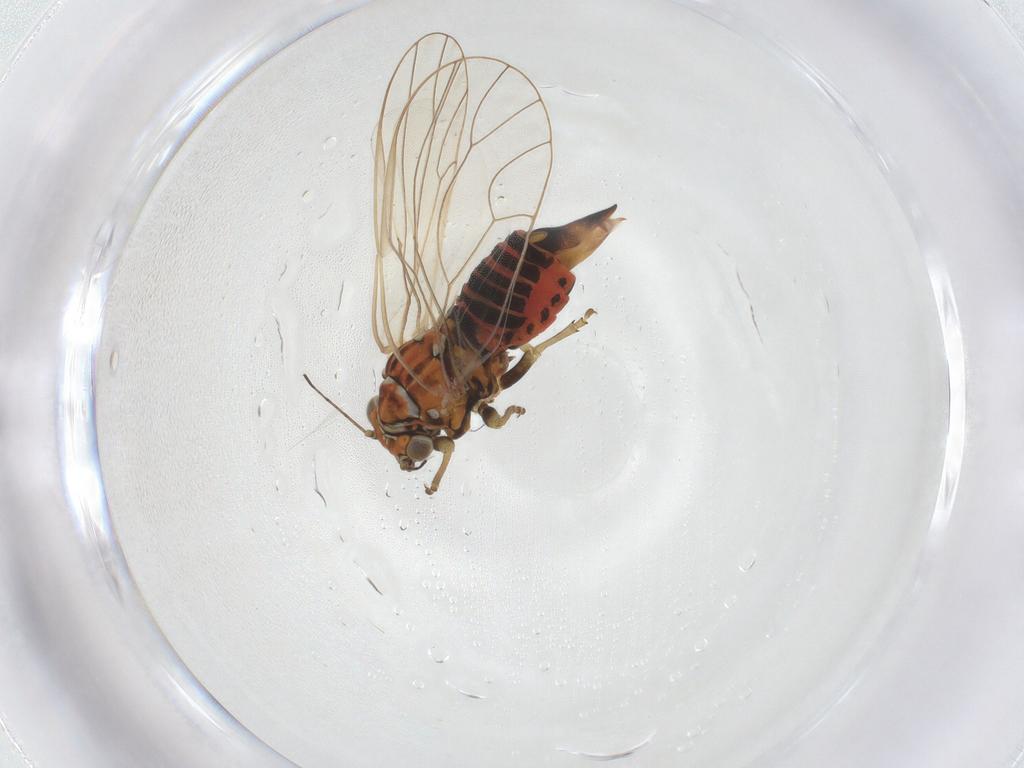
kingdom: Animalia
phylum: Arthropoda
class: Insecta
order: Hemiptera
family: Psyllidae
